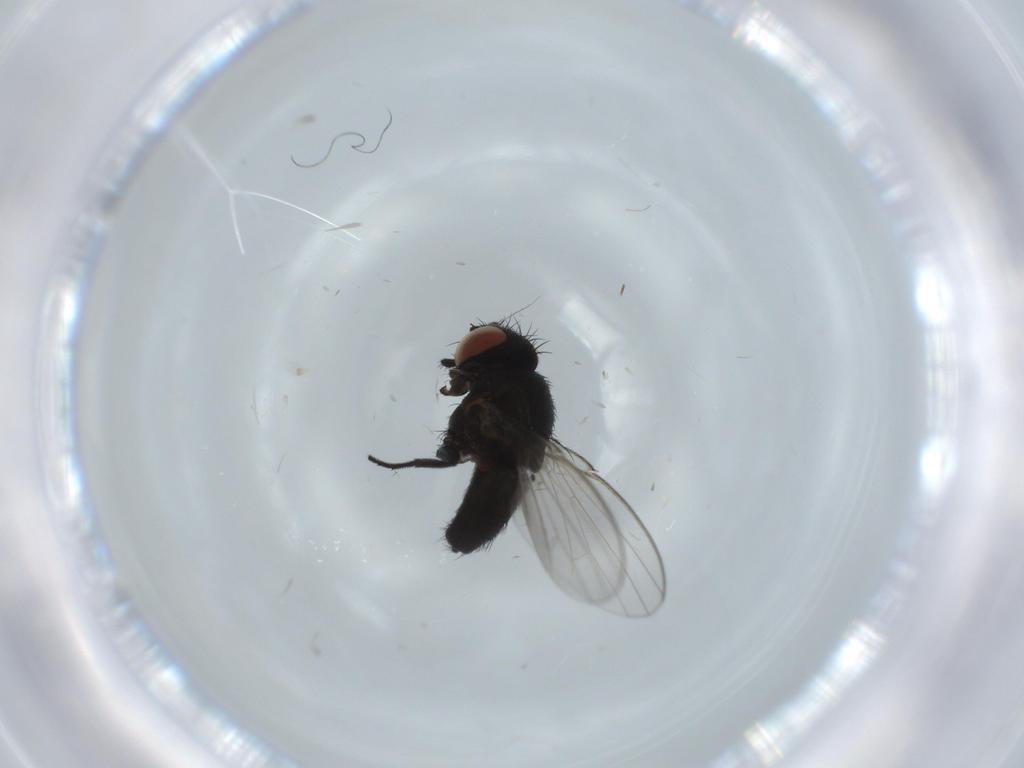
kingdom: Animalia
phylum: Arthropoda
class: Insecta
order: Diptera
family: Milichiidae
